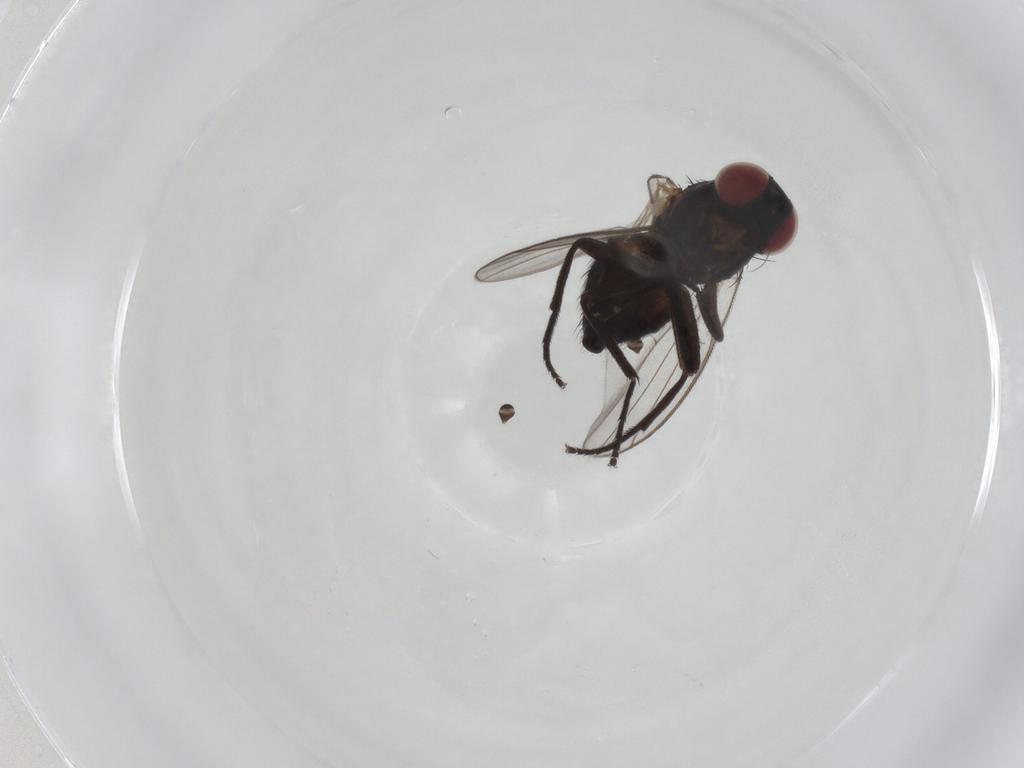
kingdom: Animalia
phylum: Arthropoda
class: Insecta
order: Diptera
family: Agromyzidae
